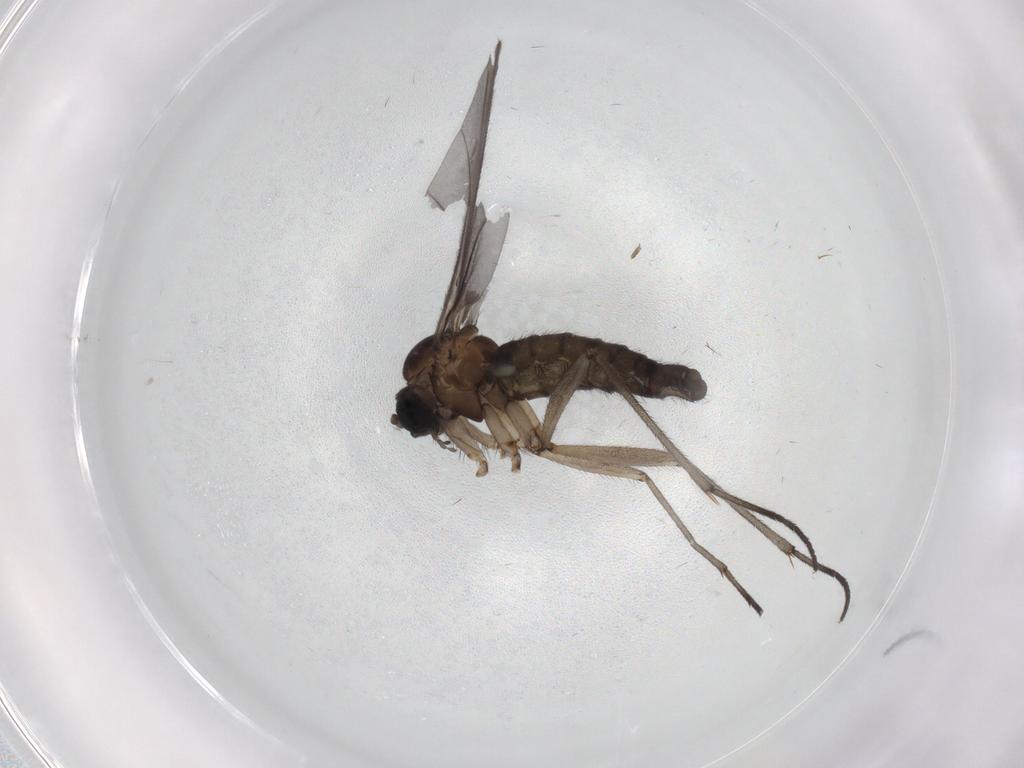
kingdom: Animalia
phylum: Arthropoda
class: Insecta
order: Diptera
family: Sciaridae
